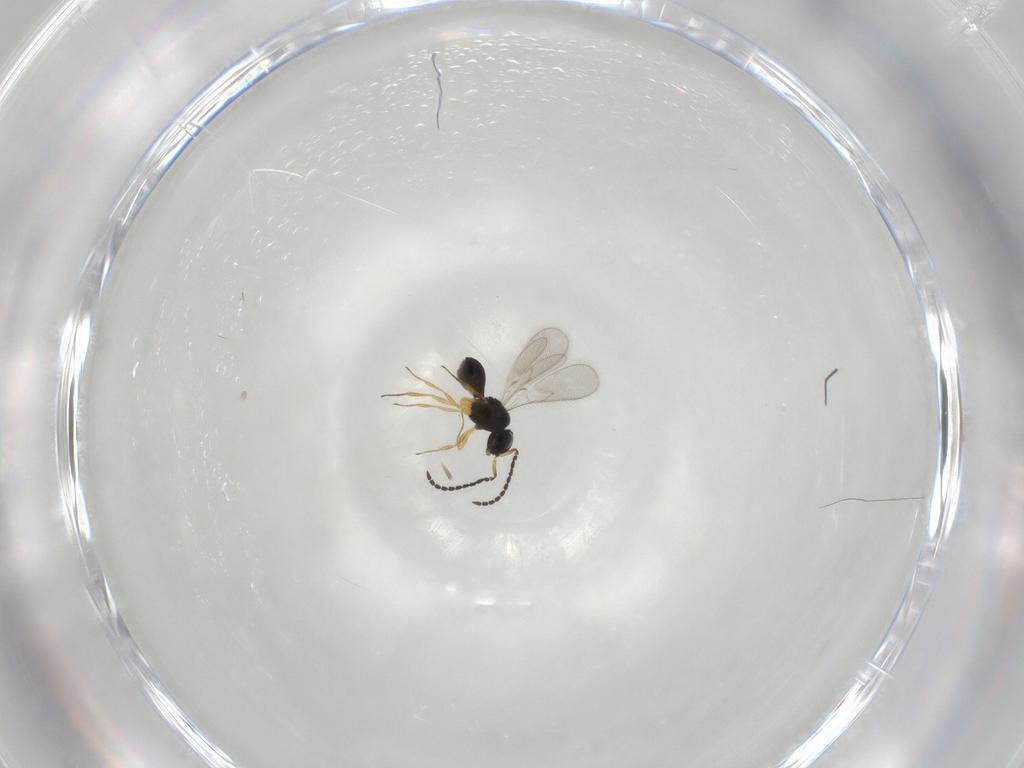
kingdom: Animalia
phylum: Arthropoda
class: Insecta
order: Hymenoptera
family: Scelionidae
